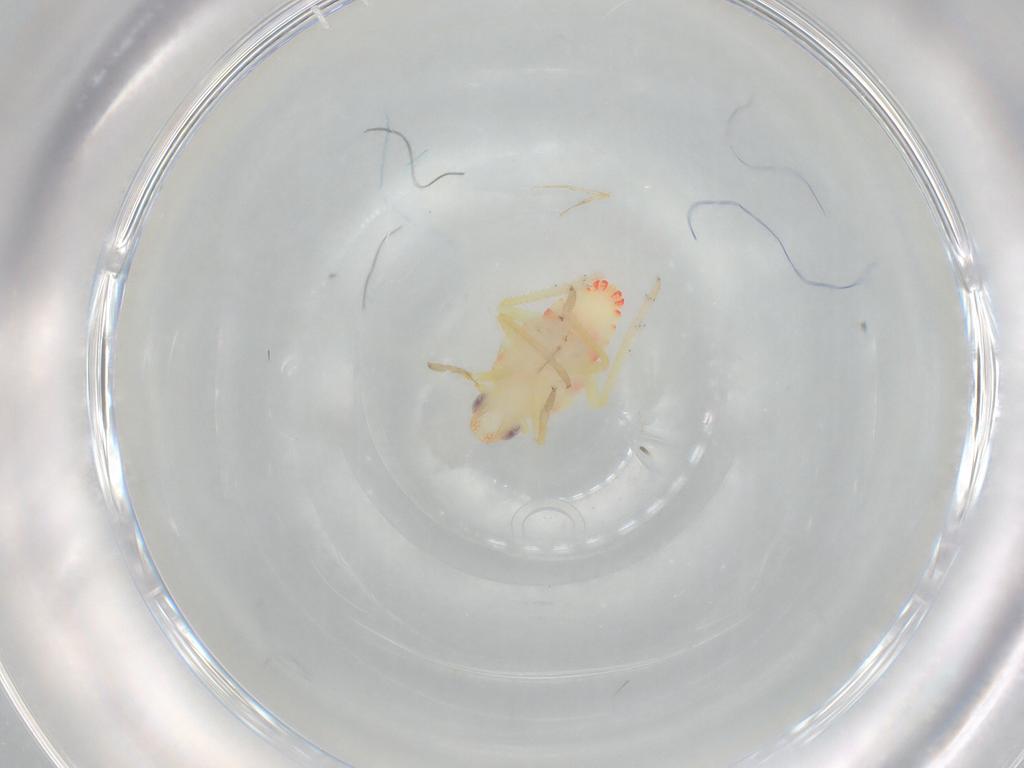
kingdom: Animalia
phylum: Arthropoda
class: Insecta
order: Hemiptera
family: Tropiduchidae
